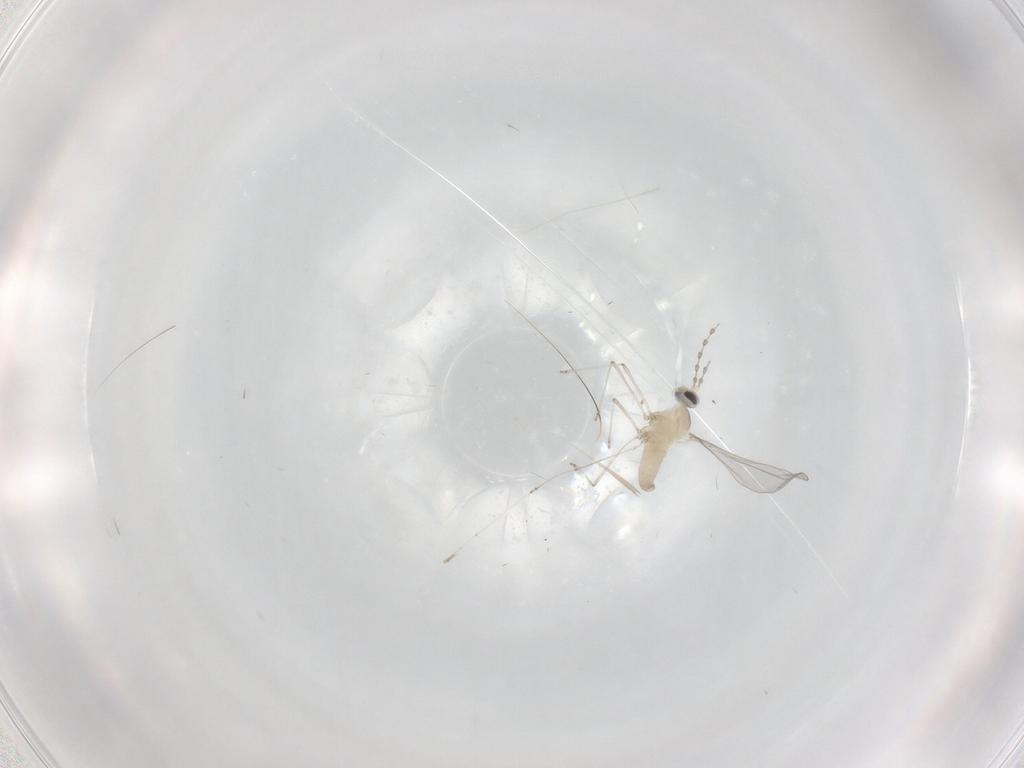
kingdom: Animalia
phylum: Arthropoda
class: Insecta
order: Diptera
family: Cecidomyiidae
